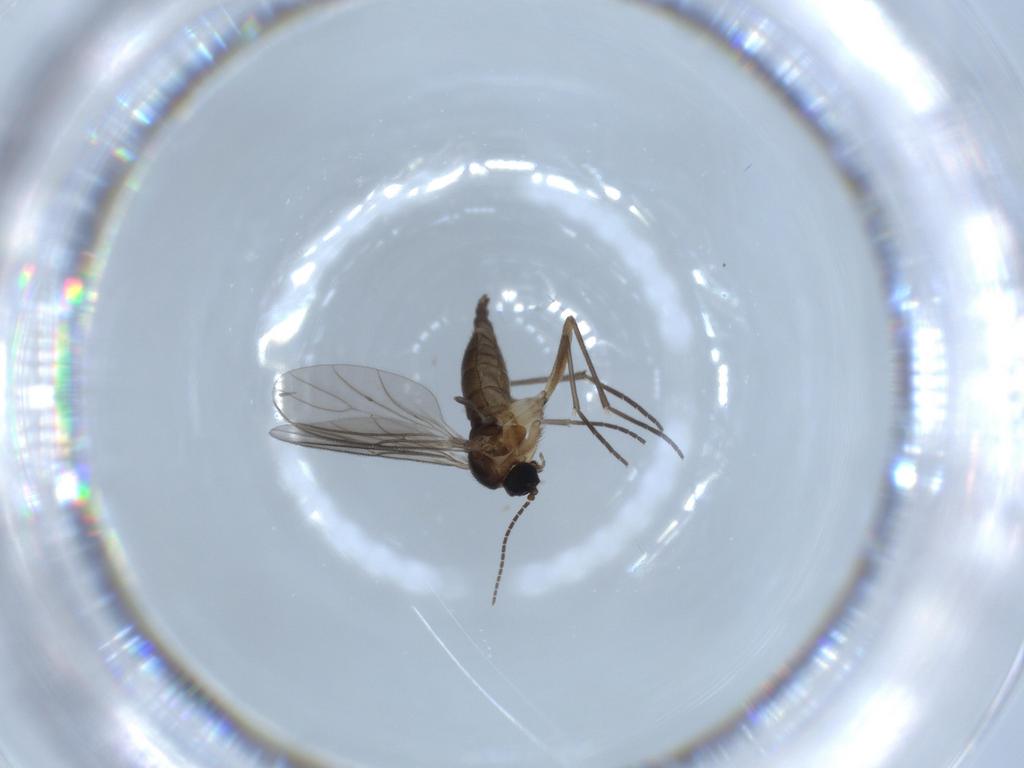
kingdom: Animalia
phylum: Arthropoda
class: Insecta
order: Diptera
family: Sciaridae
